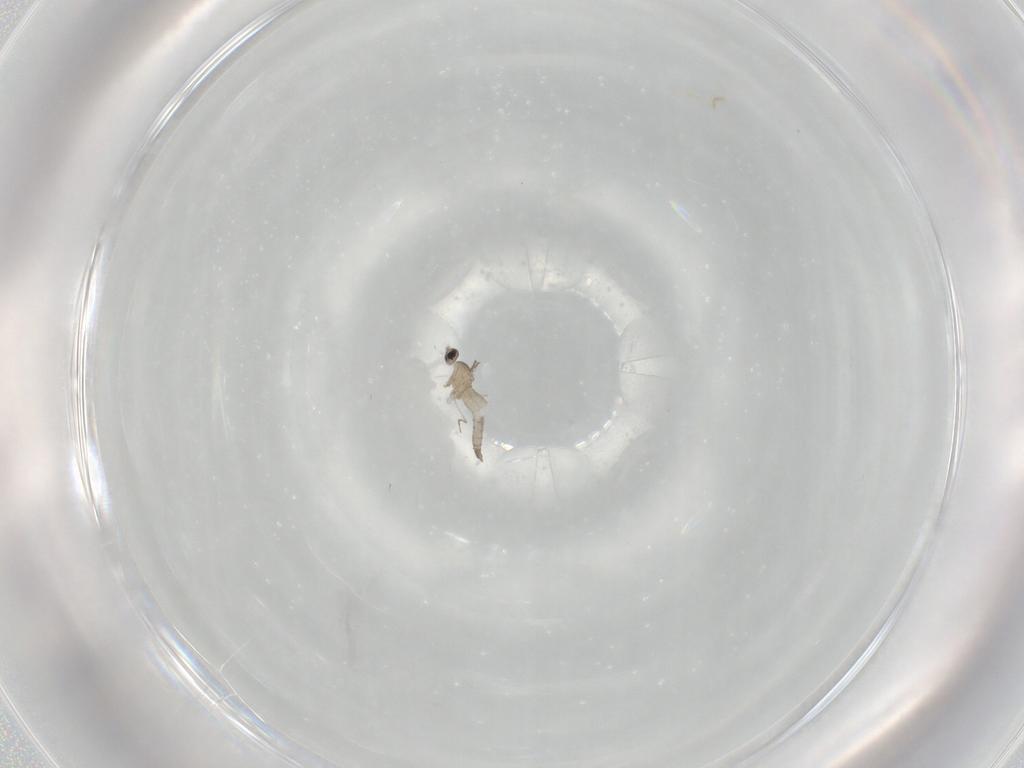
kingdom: Animalia
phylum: Arthropoda
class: Insecta
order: Diptera
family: Cecidomyiidae
